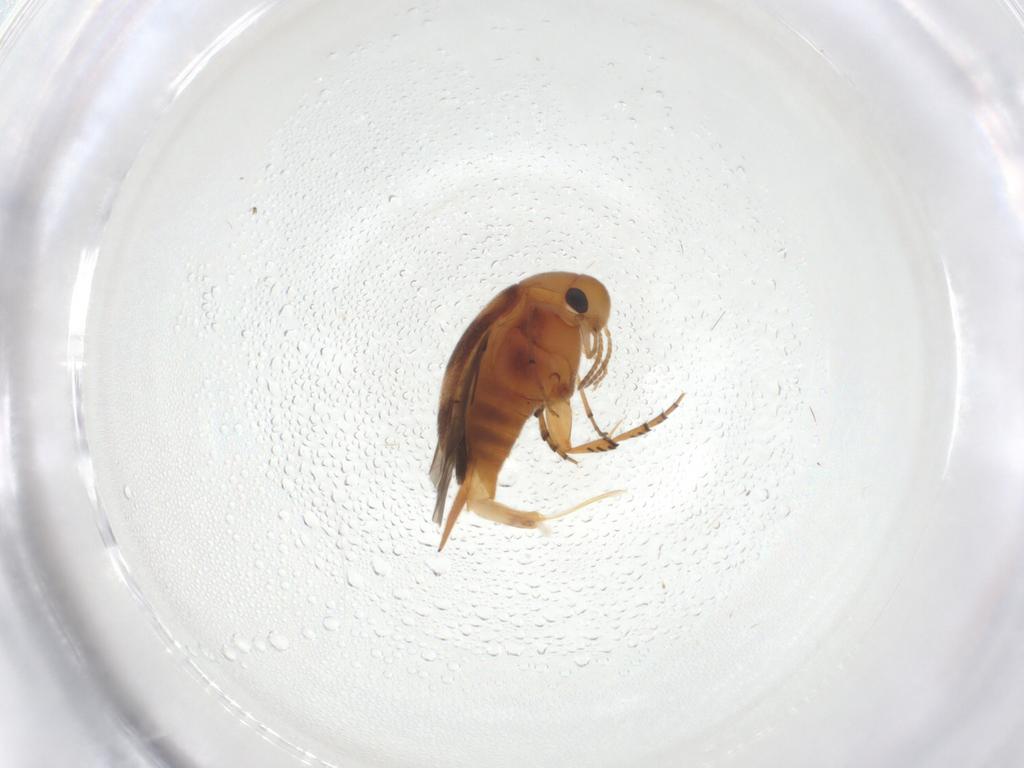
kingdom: Animalia
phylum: Arthropoda
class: Insecta
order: Coleoptera
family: Mordellidae
